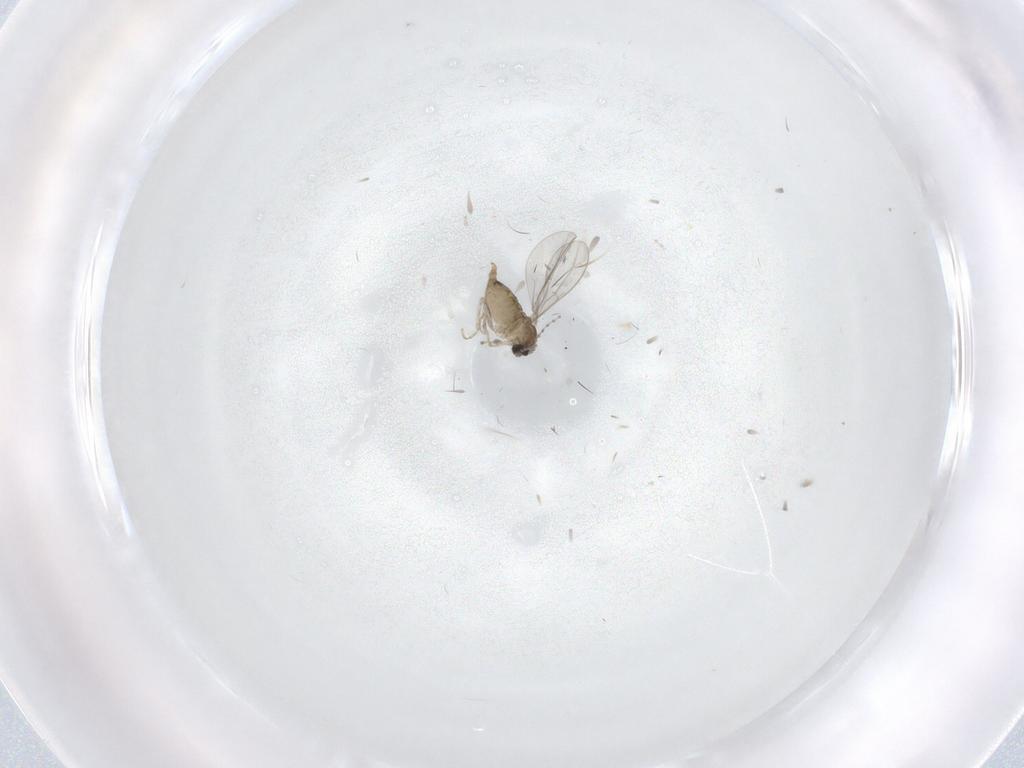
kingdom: Animalia
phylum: Arthropoda
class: Insecta
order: Diptera
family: Cecidomyiidae
